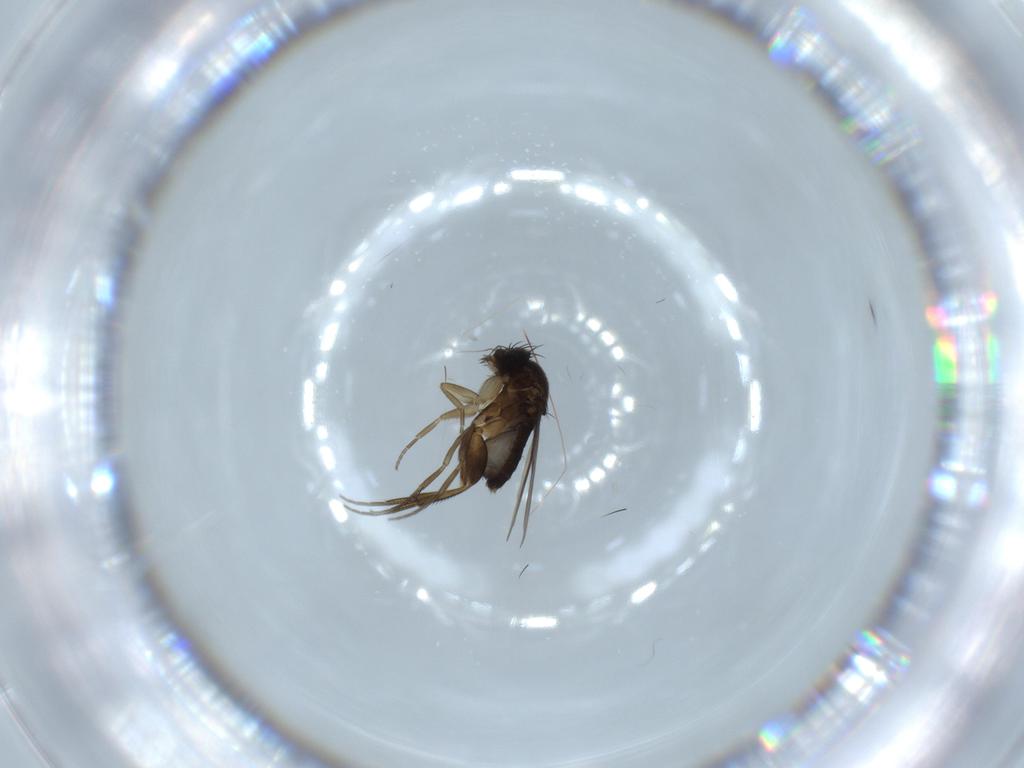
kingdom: Animalia
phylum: Arthropoda
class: Insecta
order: Diptera
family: Phoridae
